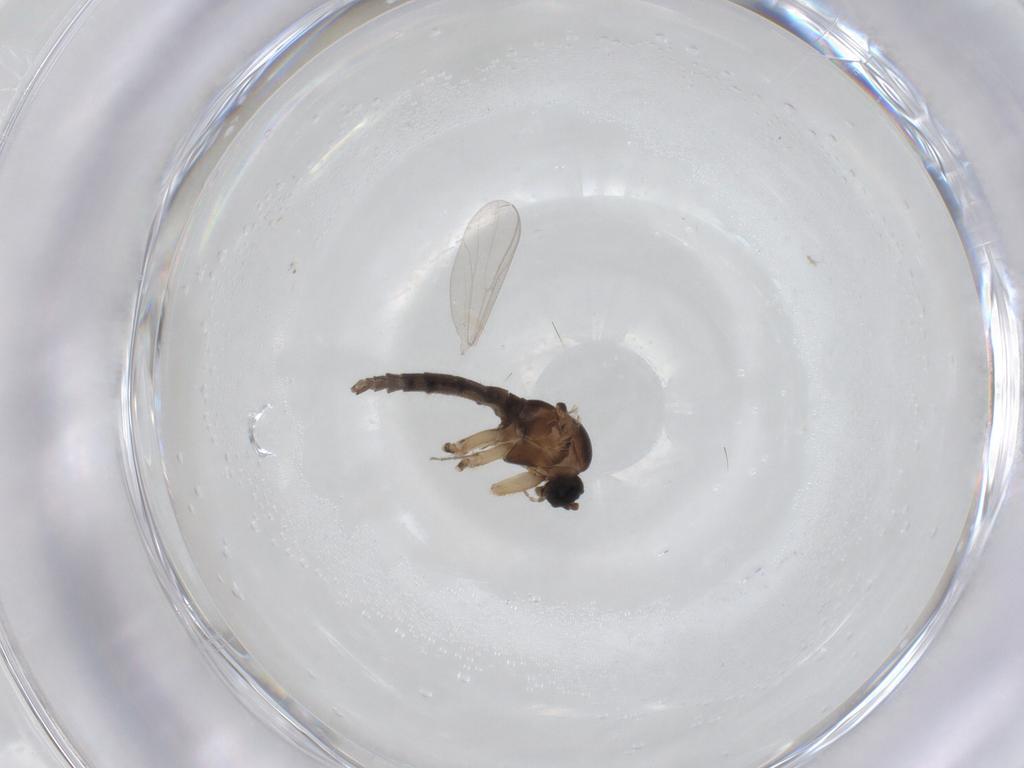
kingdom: Animalia
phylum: Arthropoda
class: Insecta
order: Diptera
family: Sciaridae
